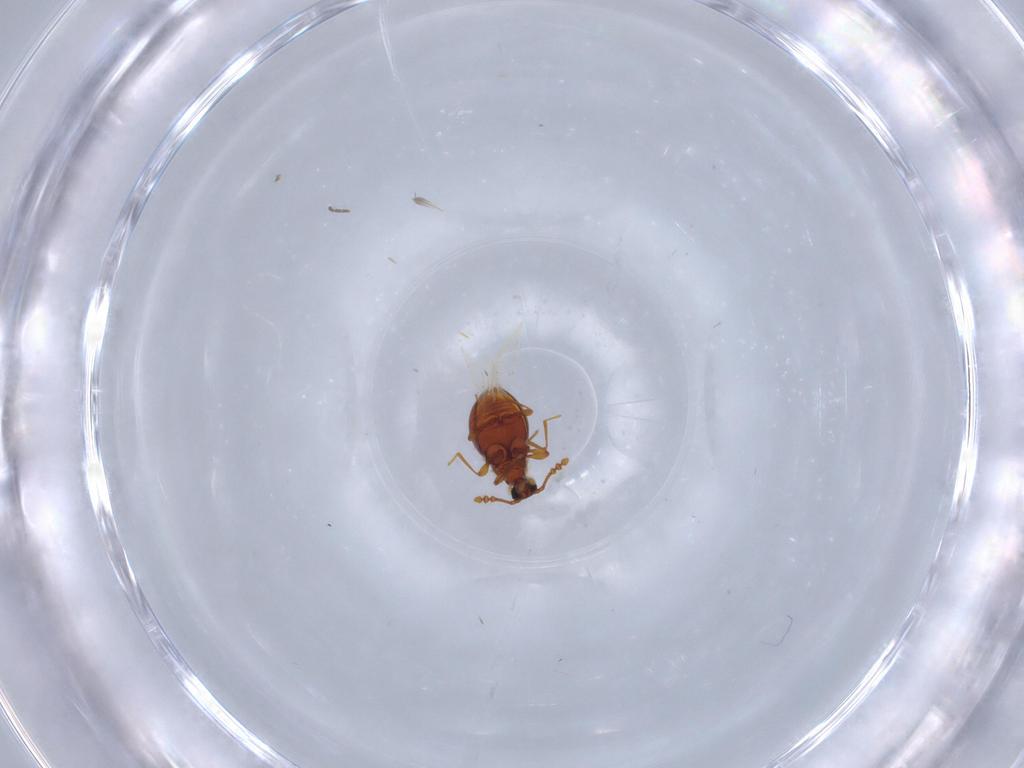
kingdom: Animalia
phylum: Arthropoda
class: Insecta
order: Coleoptera
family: Staphylinidae
